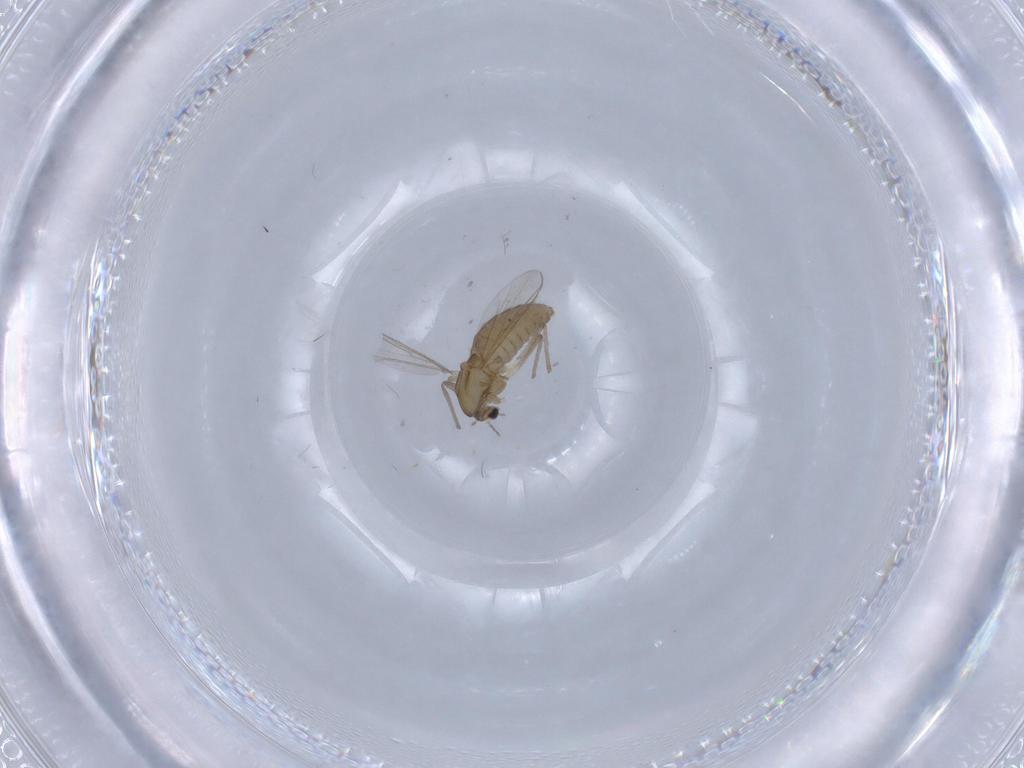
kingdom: Animalia
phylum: Arthropoda
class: Insecta
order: Diptera
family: Chironomidae
